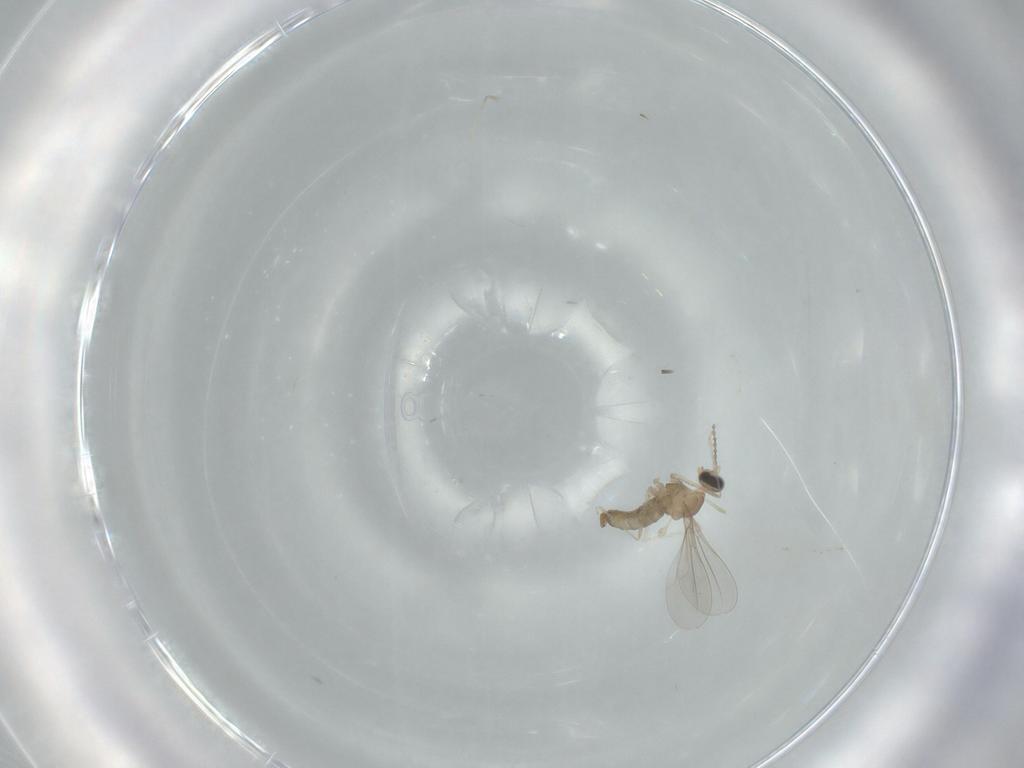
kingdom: Animalia
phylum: Arthropoda
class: Insecta
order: Diptera
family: Cecidomyiidae
